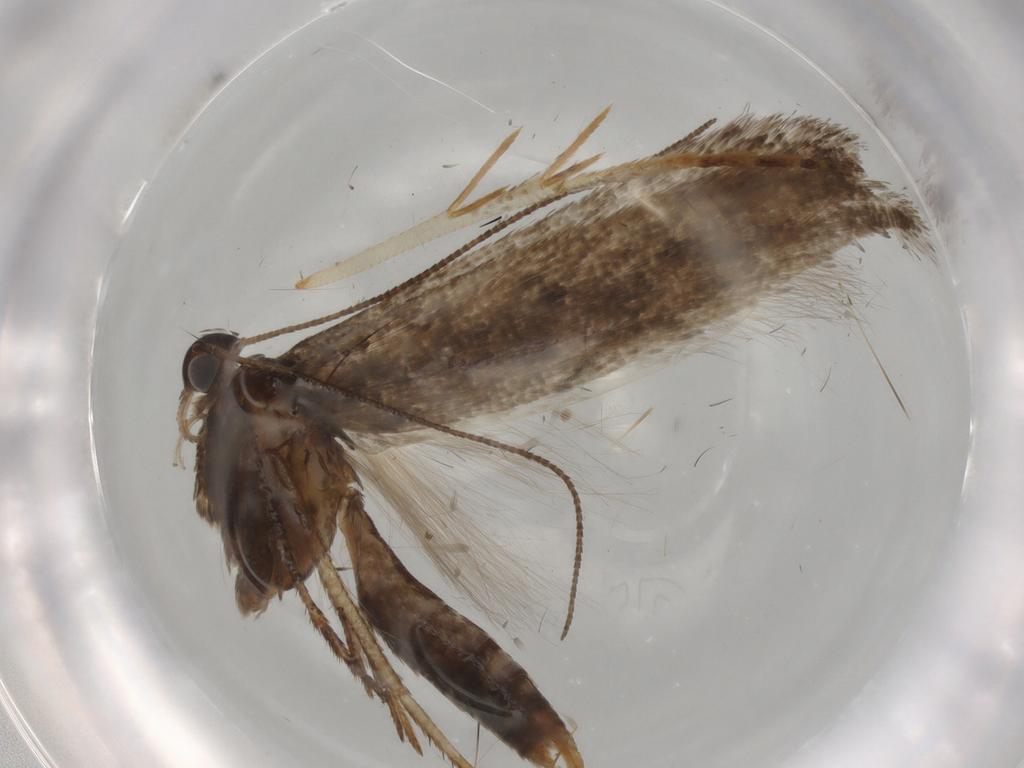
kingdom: Animalia
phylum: Arthropoda
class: Insecta
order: Lepidoptera
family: Gelechiidae
